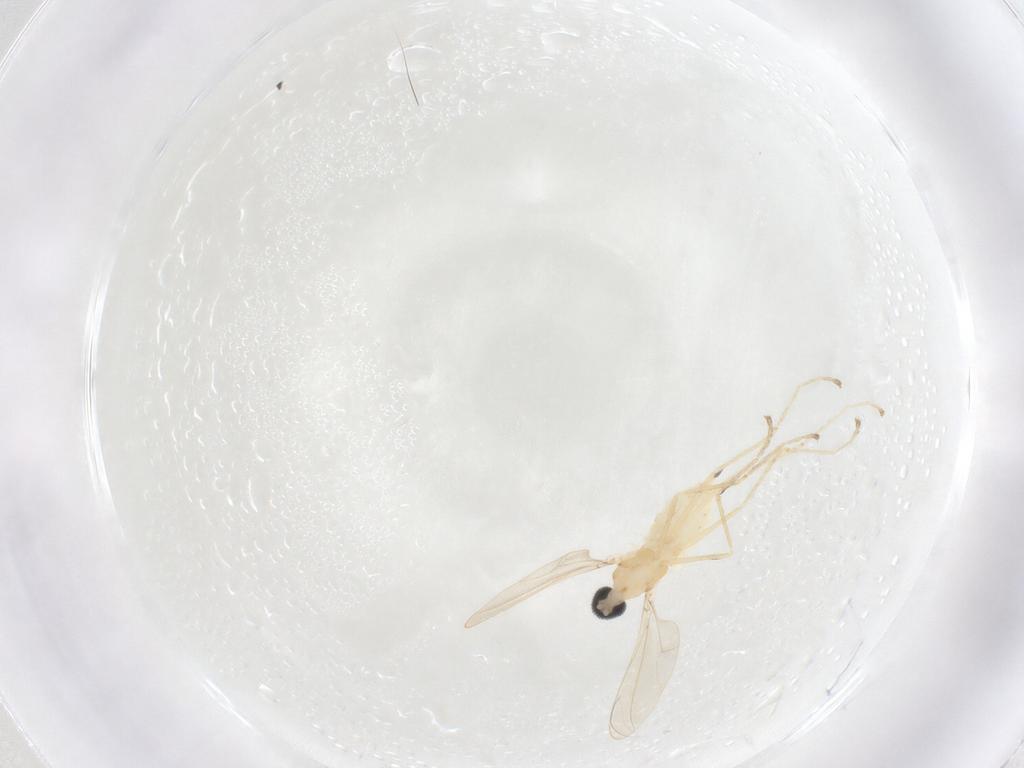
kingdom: Animalia
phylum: Arthropoda
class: Insecta
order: Diptera
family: Cecidomyiidae
